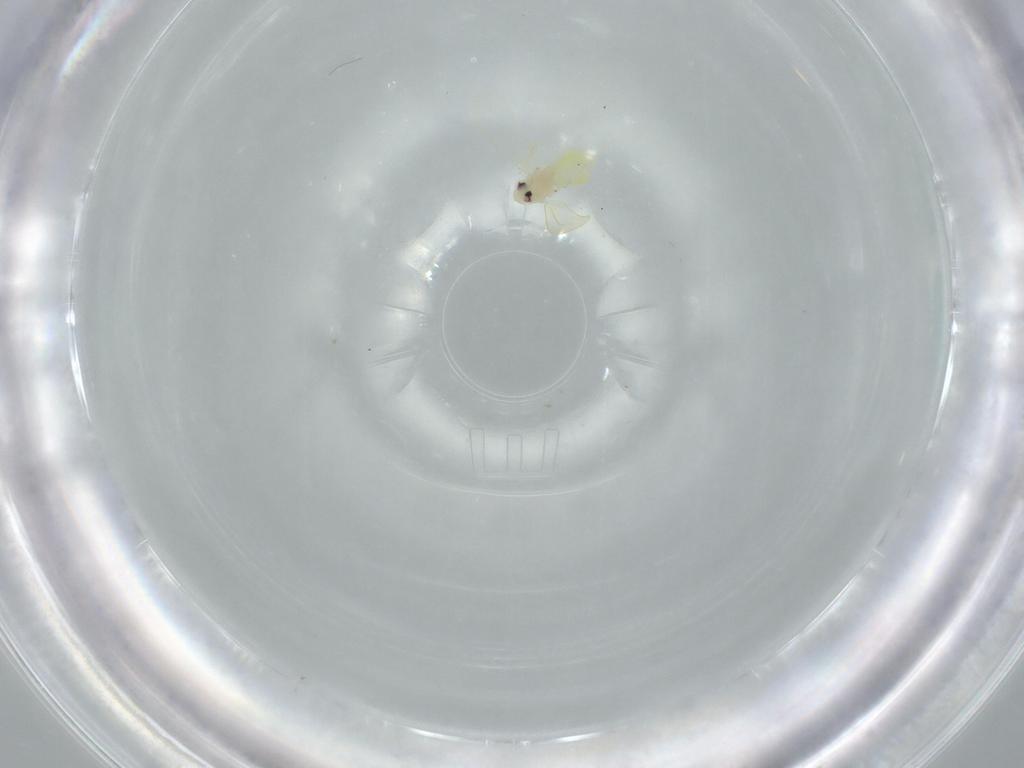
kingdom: Animalia
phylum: Arthropoda
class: Insecta
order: Hemiptera
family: Aleyrodidae
